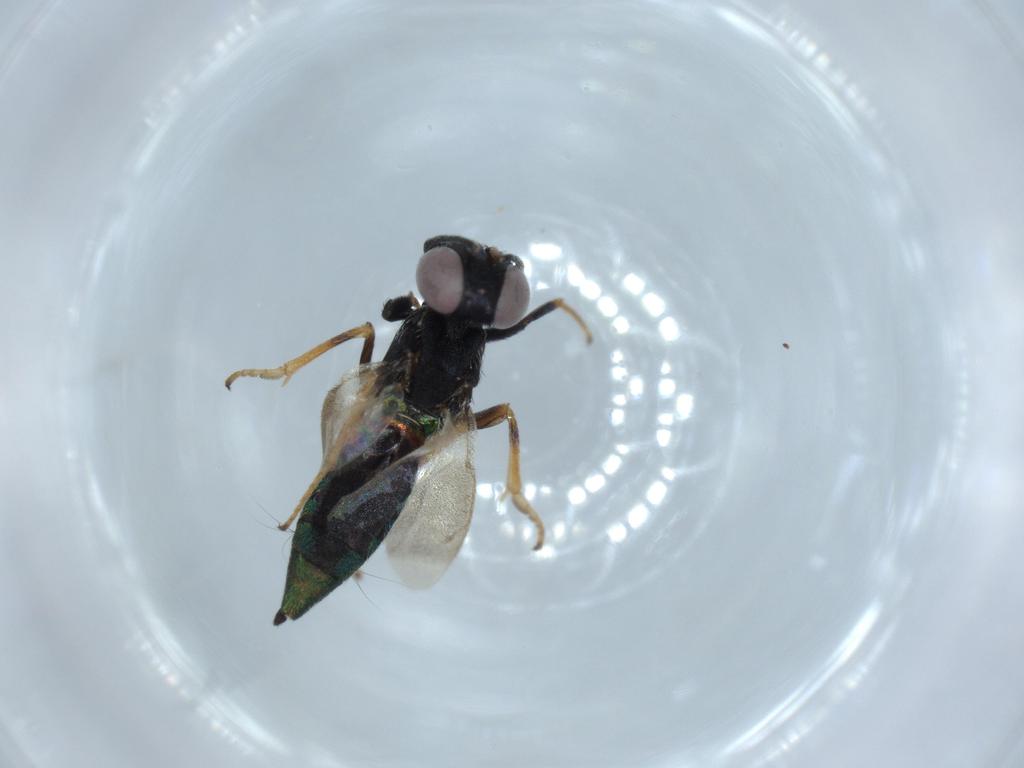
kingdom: Animalia
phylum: Arthropoda
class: Insecta
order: Hymenoptera
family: Eupelmidae
